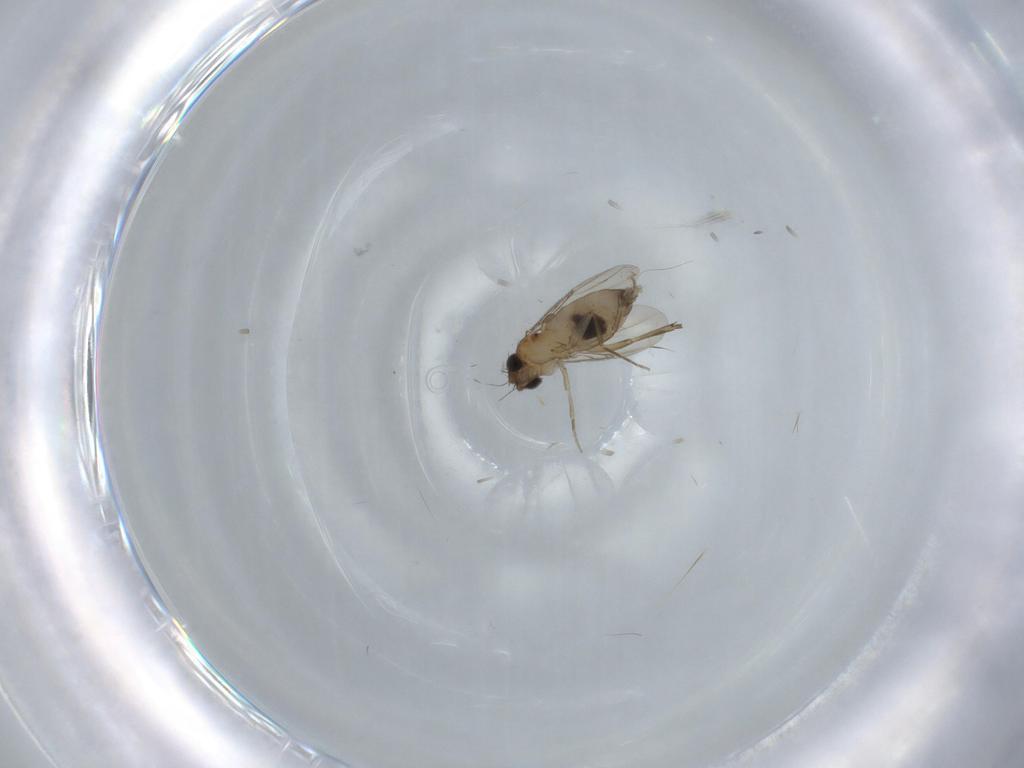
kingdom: Animalia
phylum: Arthropoda
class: Insecta
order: Diptera
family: Phoridae
